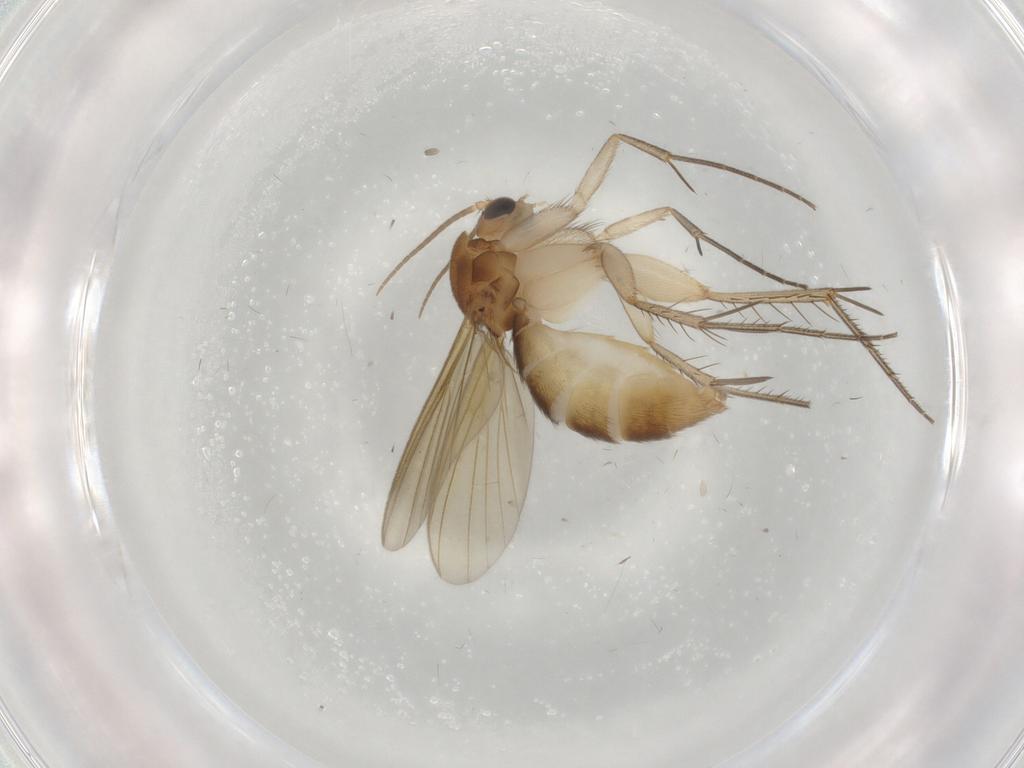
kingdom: Animalia
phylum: Arthropoda
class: Insecta
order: Diptera
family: Mycetophilidae
